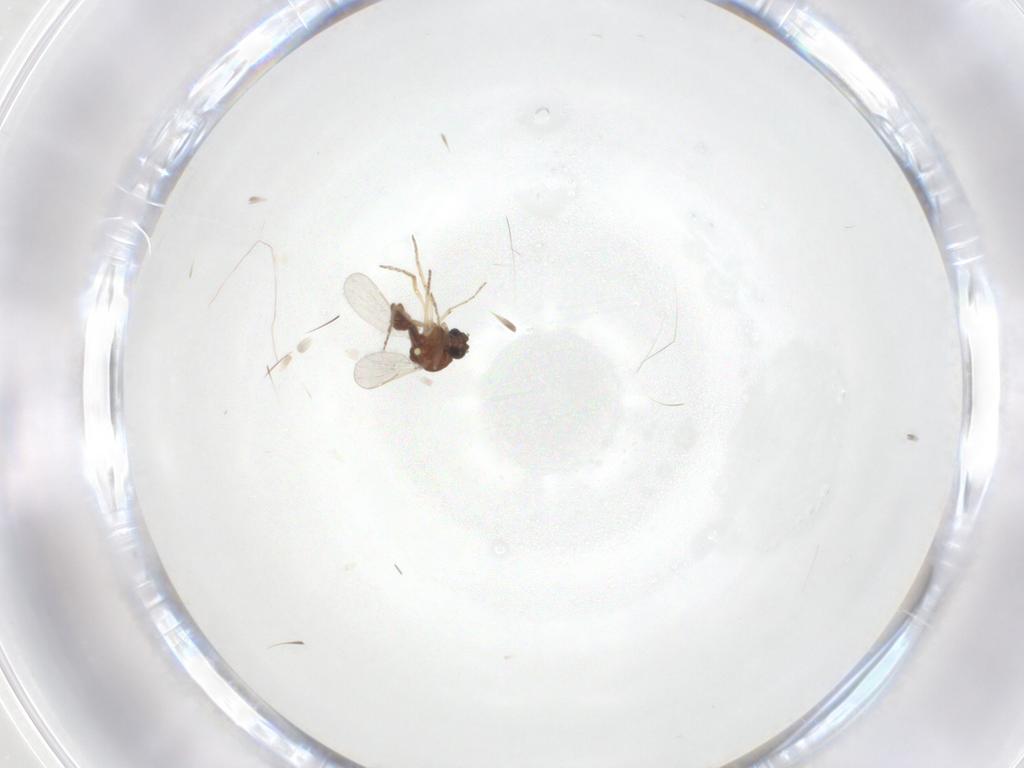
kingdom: Animalia
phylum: Arthropoda
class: Insecta
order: Diptera
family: Ceratopogonidae
